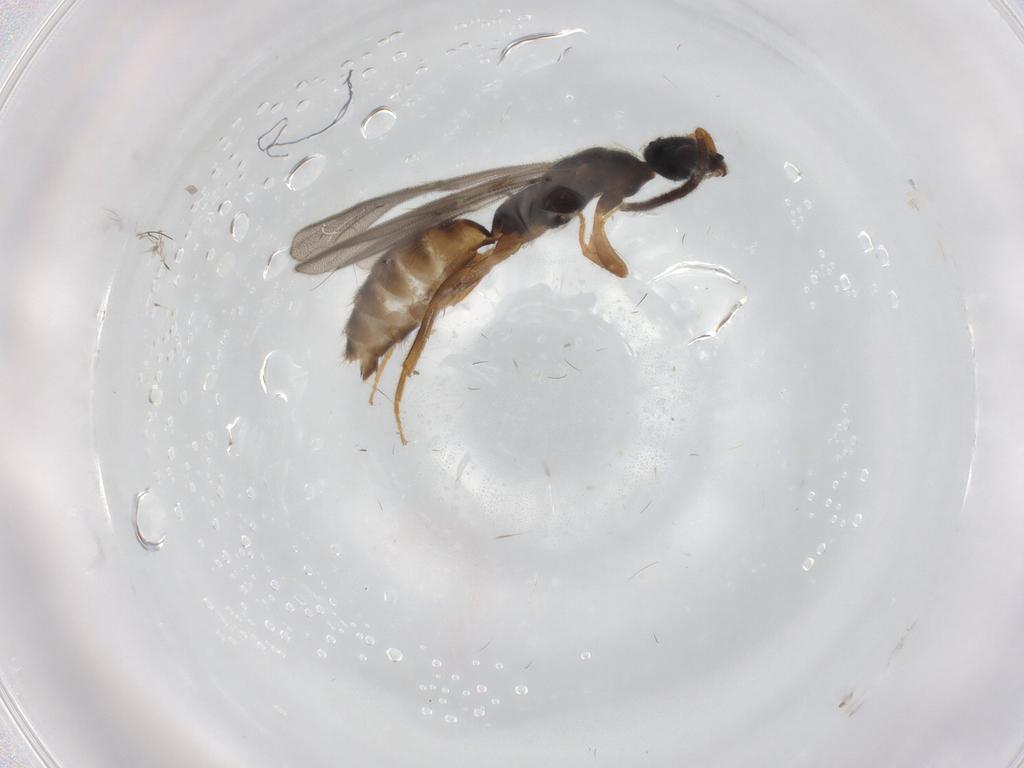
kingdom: Animalia
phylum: Arthropoda
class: Insecta
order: Hymenoptera
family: Bethylidae
